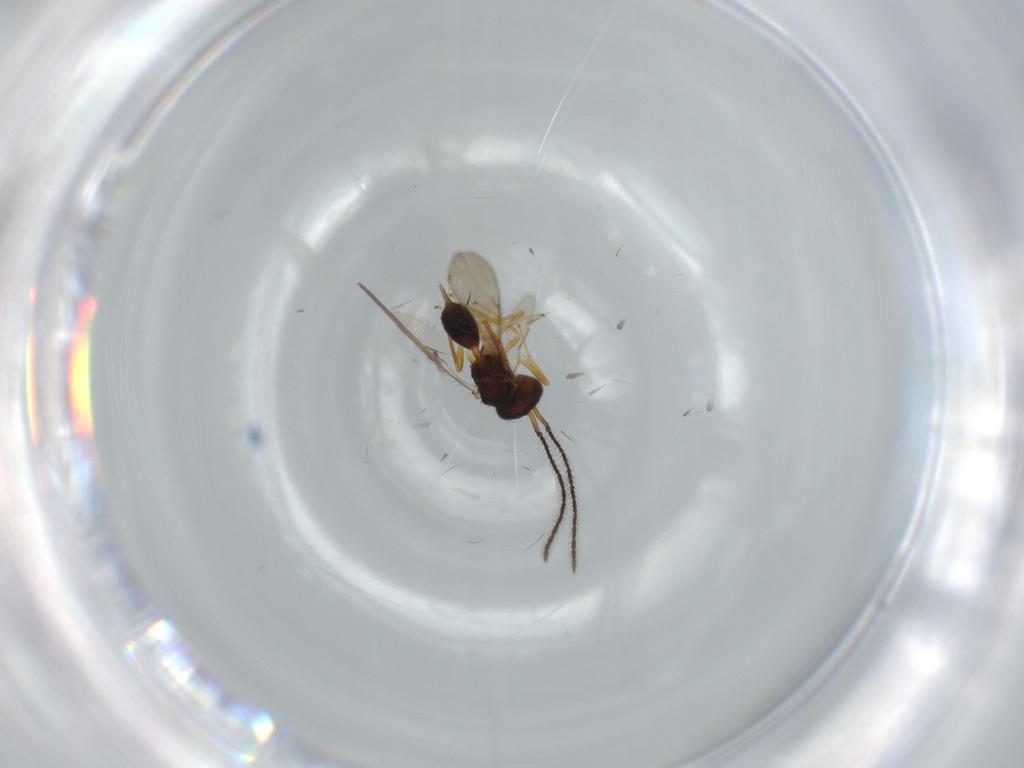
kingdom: Animalia
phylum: Arthropoda
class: Insecta
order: Hymenoptera
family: Diparidae
